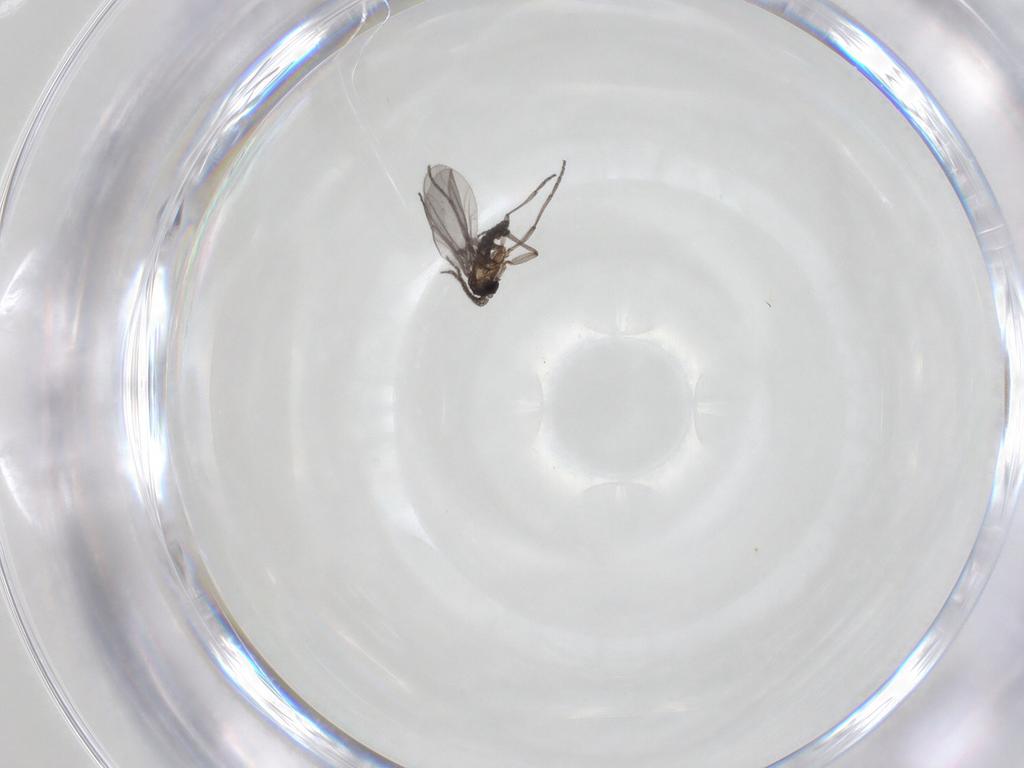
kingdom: Animalia
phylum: Arthropoda
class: Insecta
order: Diptera
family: Sciaridae
